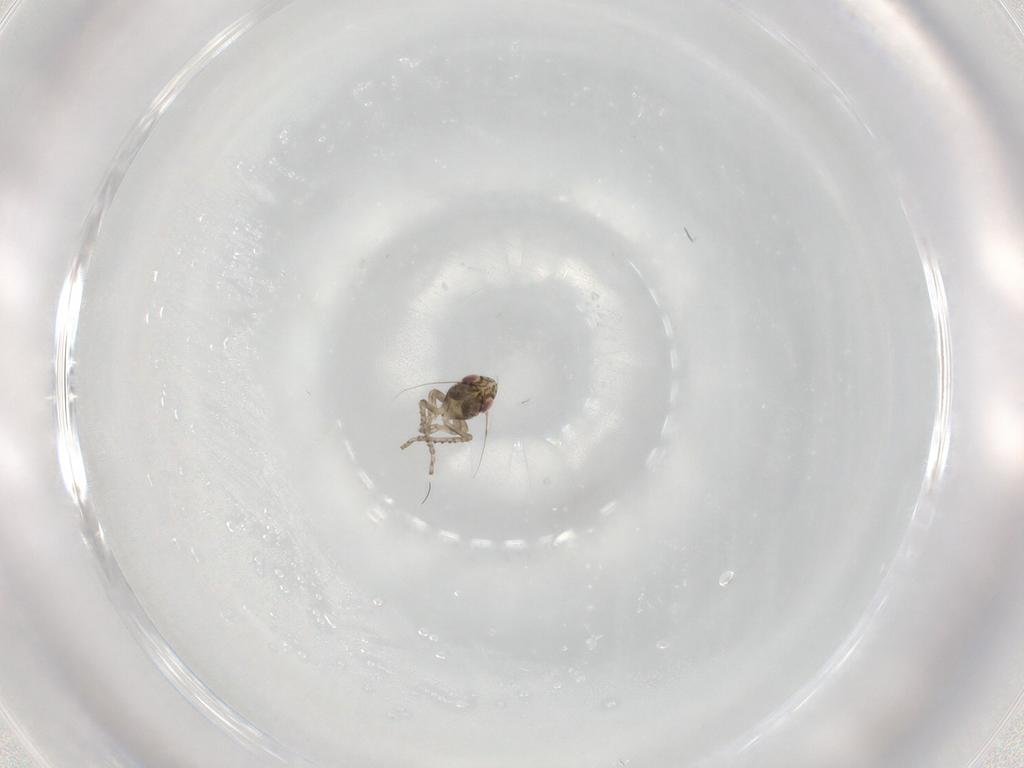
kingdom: Animalia
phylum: Arthropoda
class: Insecta
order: Hemiptera
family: Cicadellidae
